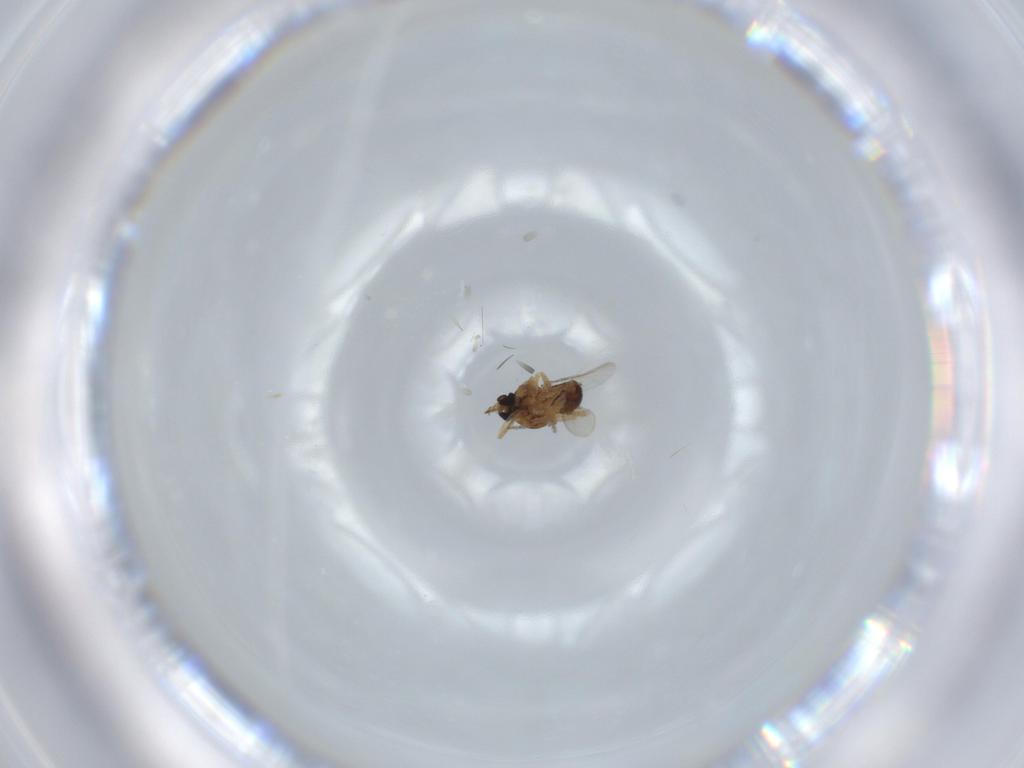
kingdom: Animalia
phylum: Arthropoda
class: Insecta
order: Diptera
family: Ceratopogonidae
